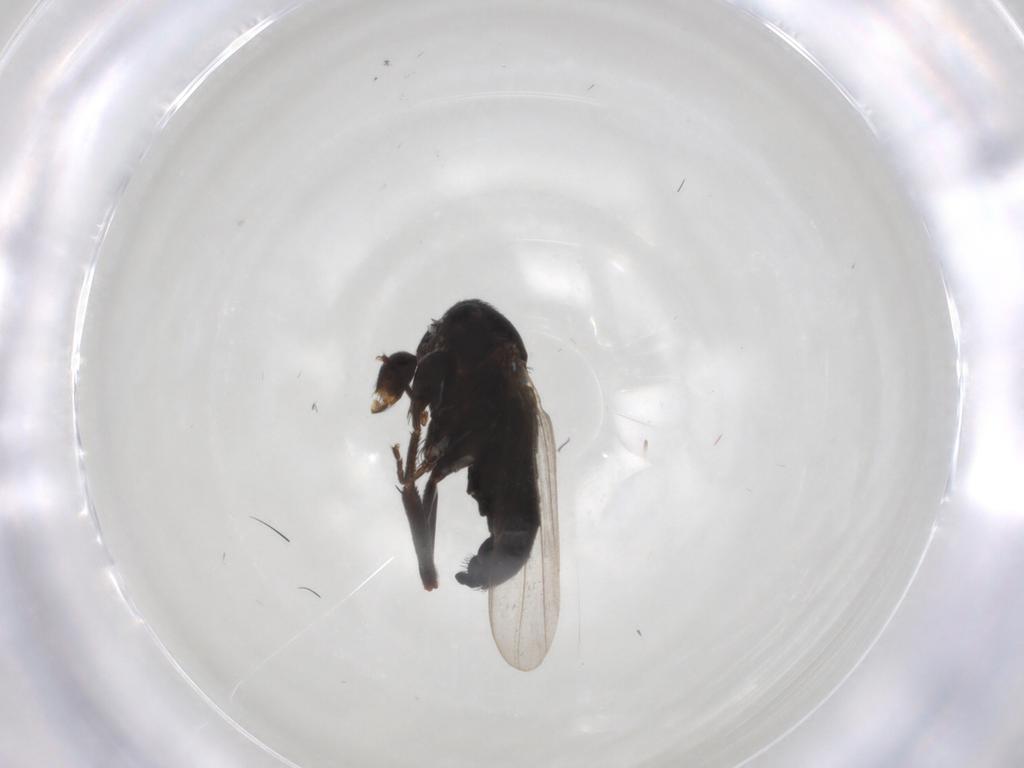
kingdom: Animalia
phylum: Arthropoda
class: Insecta
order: Diptera
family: Phoridae
